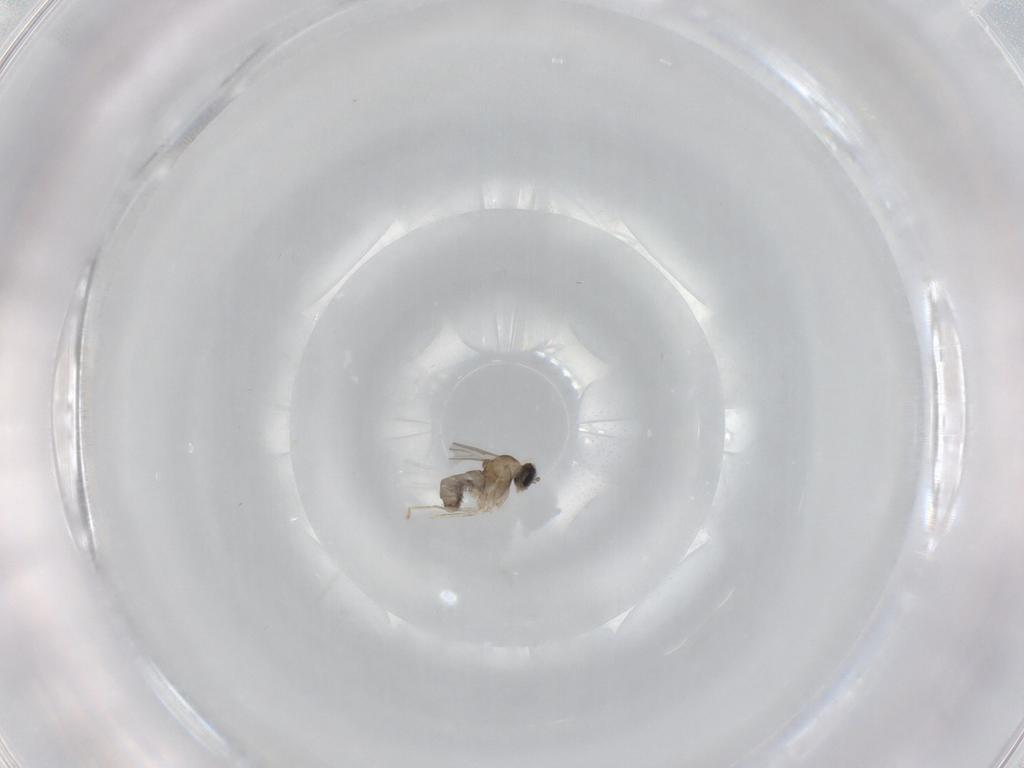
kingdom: Animalia
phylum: Arthropoda
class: Insecta
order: Diptera
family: Cecidomyiidae
